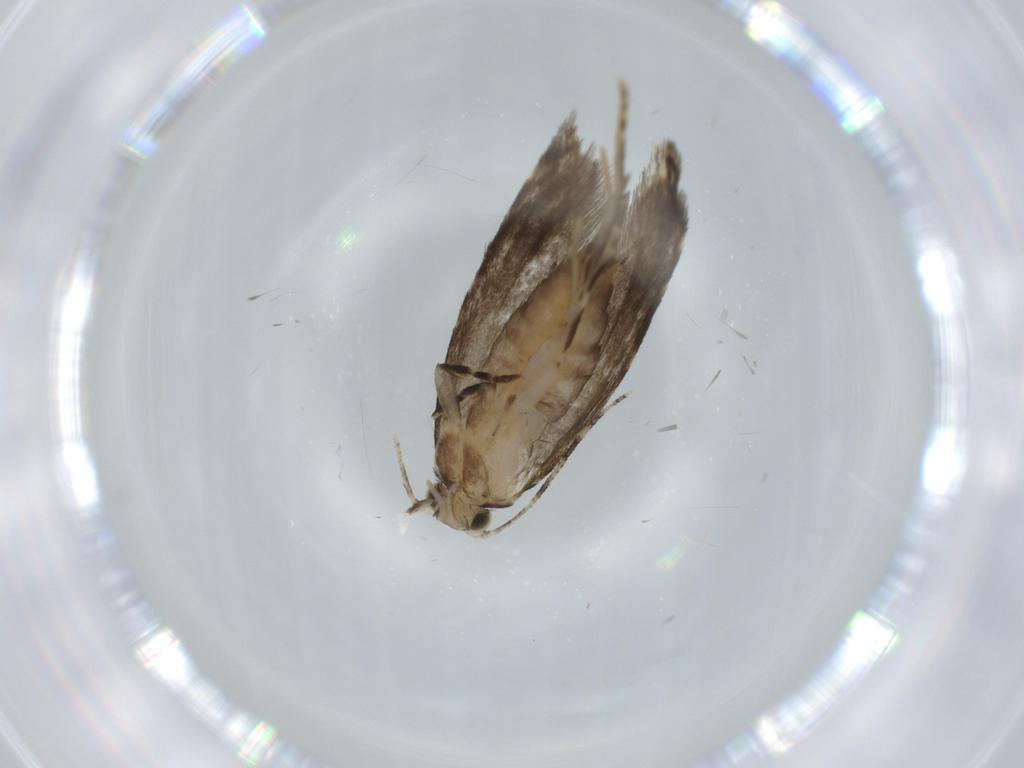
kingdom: Animalia
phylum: Arthropoda
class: Insecta
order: Lepidoptera
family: Tineidae
